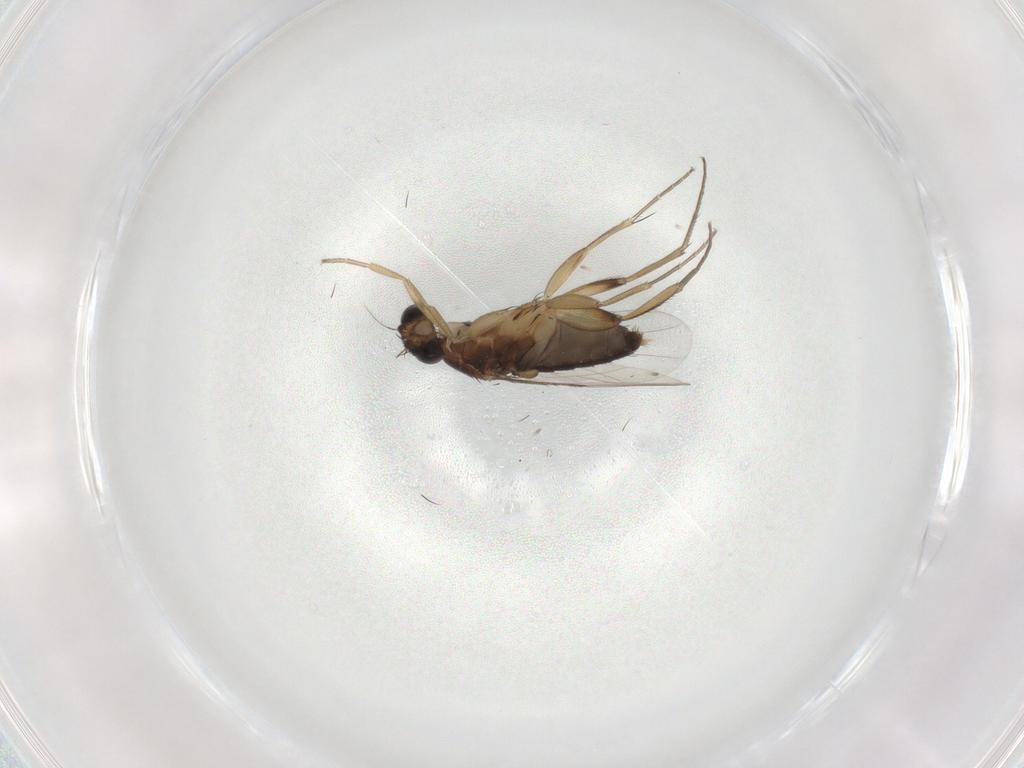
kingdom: Animalia
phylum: Arthropoda
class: Insecta
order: Diptera
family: Phoridae
